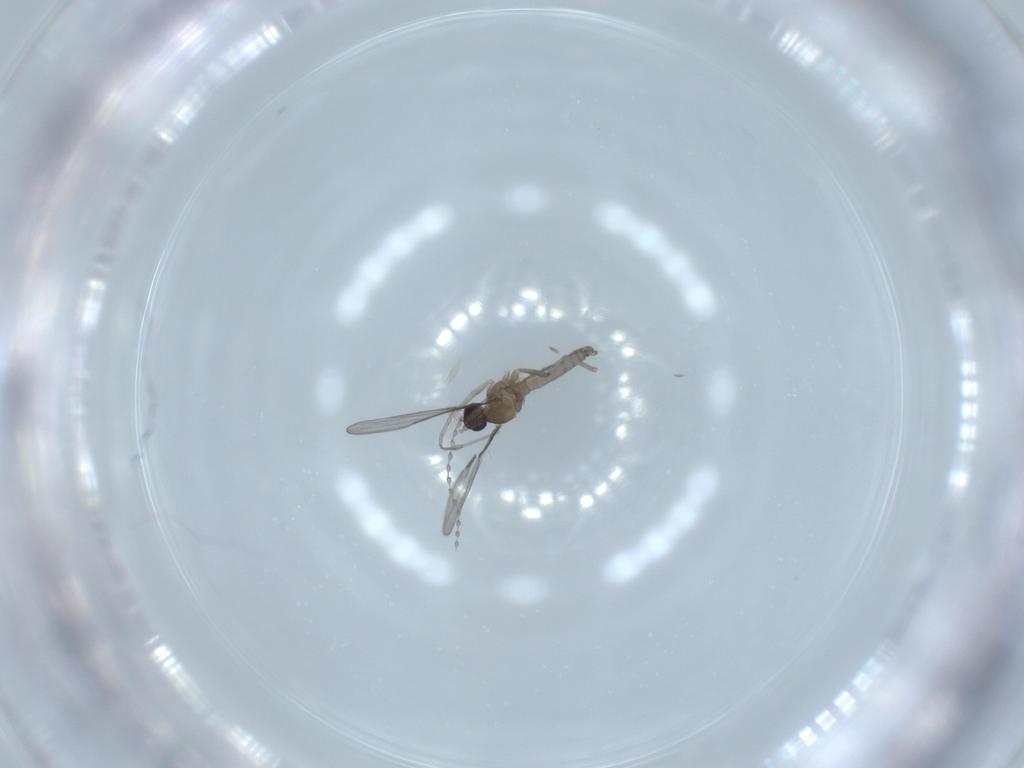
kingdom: Animalia
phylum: Arthropoda
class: Insecta
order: Diptera
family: Cecidomyiidae
